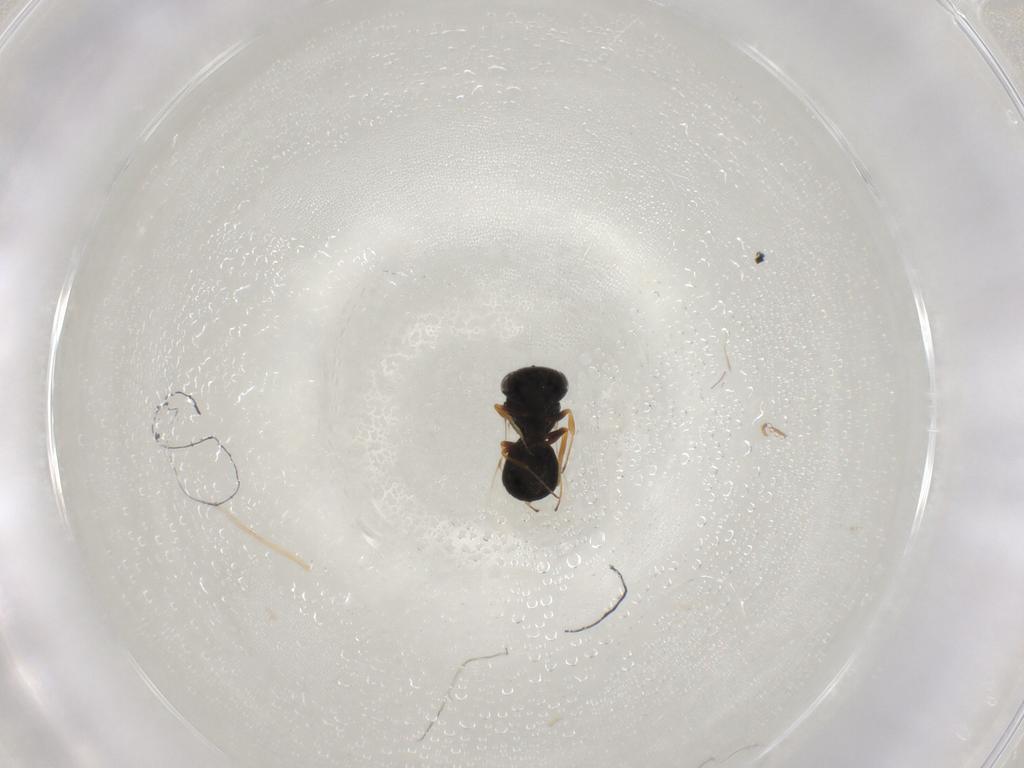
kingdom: Animalia
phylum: Arthropoda
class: Insecta
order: Hymenoptera
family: Scelionidae
